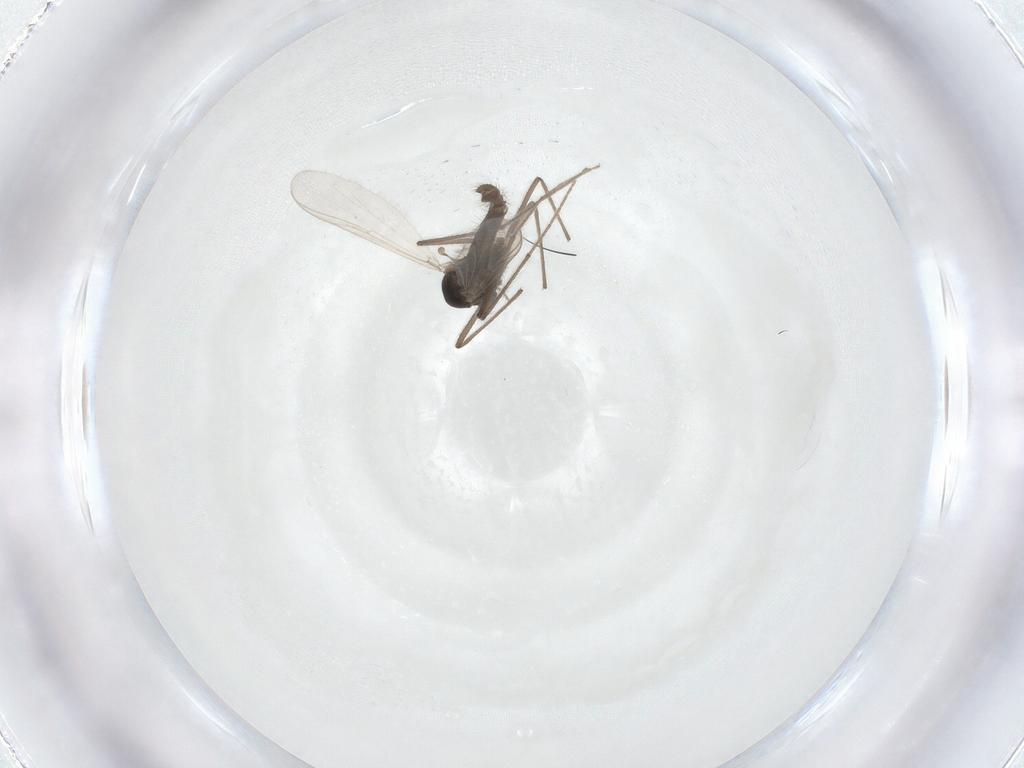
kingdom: Animalia
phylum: Arthropoda
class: Insecta
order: Diptera
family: Chironomidae
